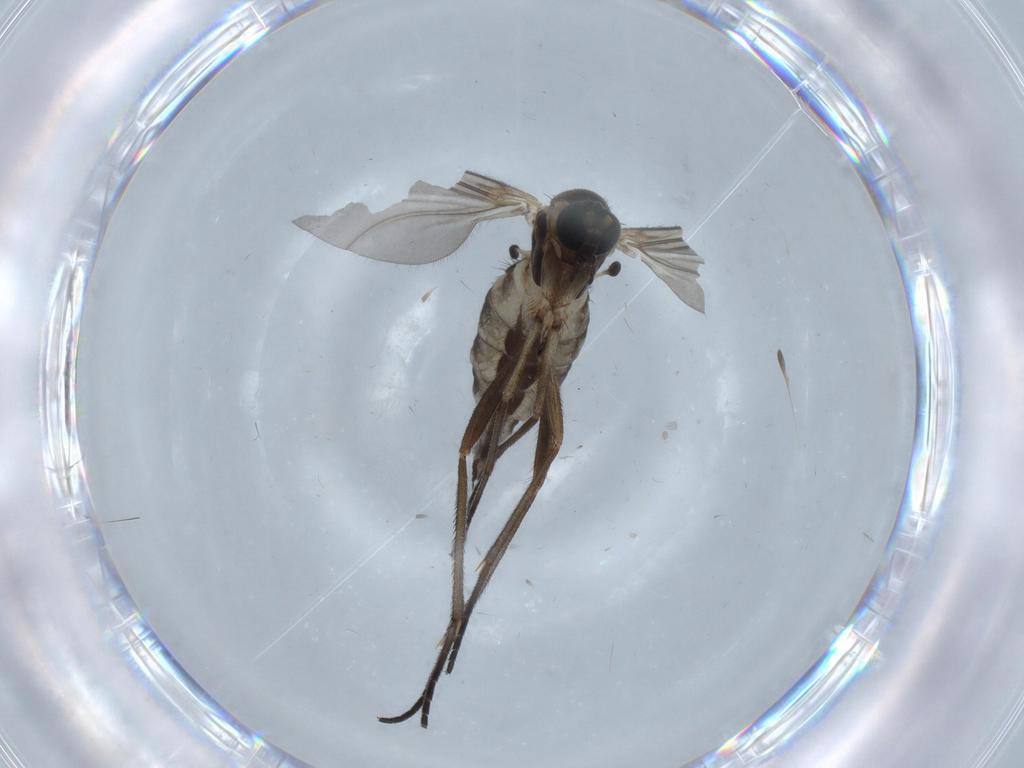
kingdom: Animalia
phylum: Arthropoda
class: Insecta
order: Diptera
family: Sciaridae
